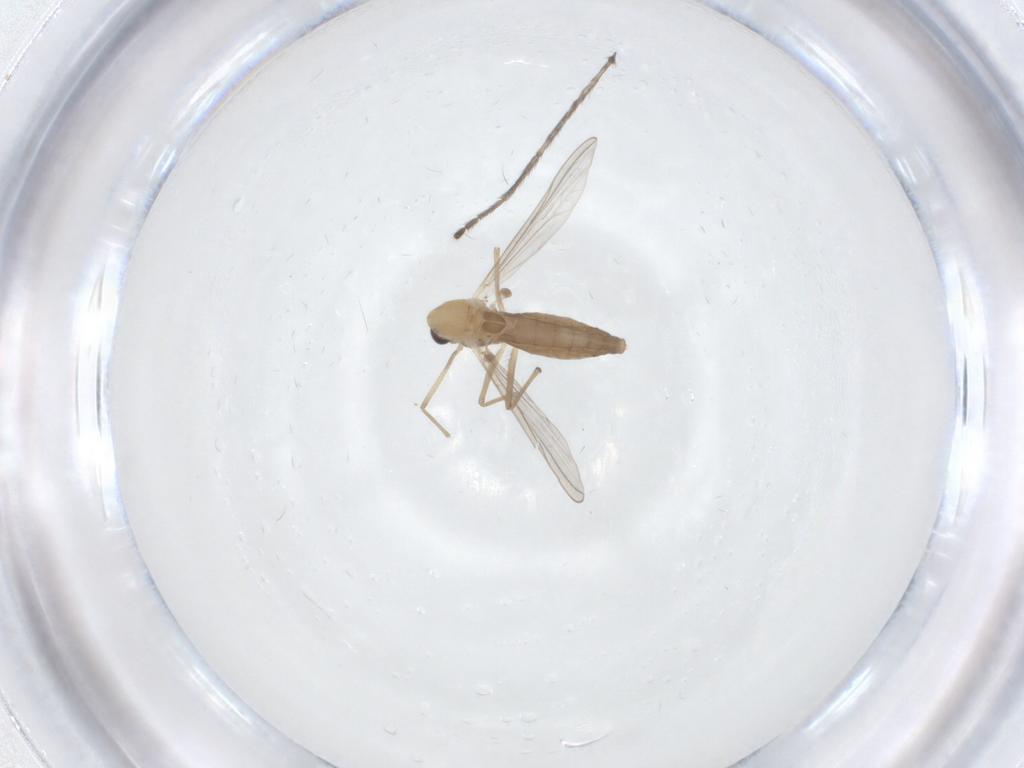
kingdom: Animalia
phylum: Arthropoda
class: Insecta
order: Diptera
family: Chironomidae
